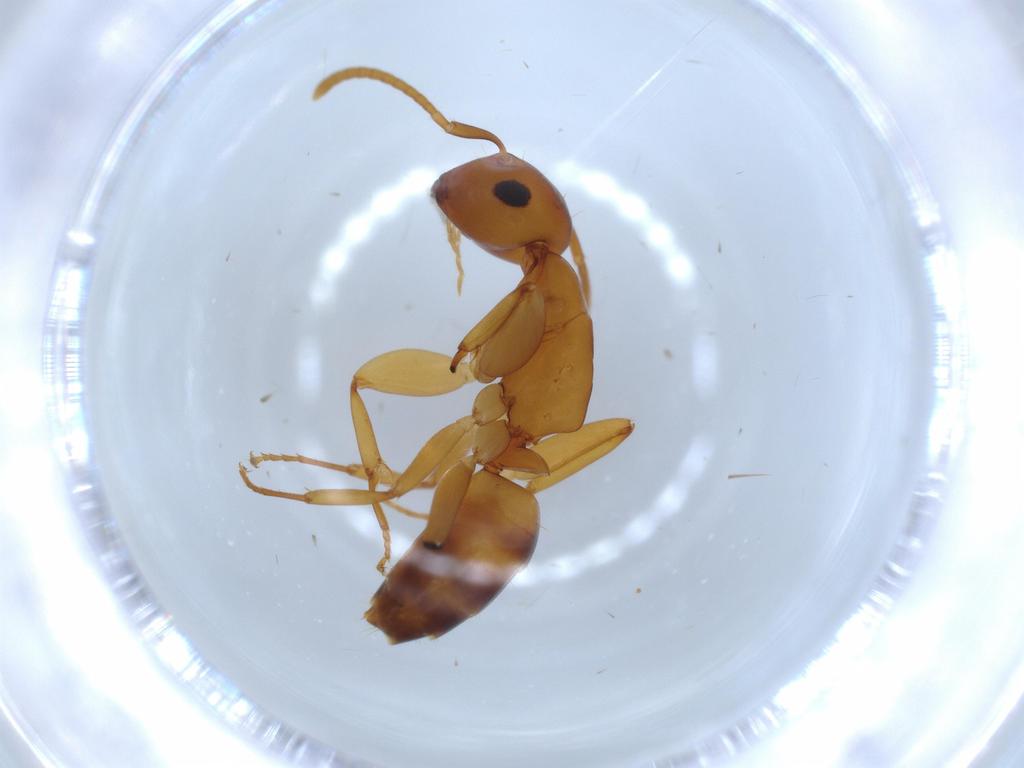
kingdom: Animalia
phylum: Arthropoda
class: Insecta
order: Hymenoptera
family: Formicidae
